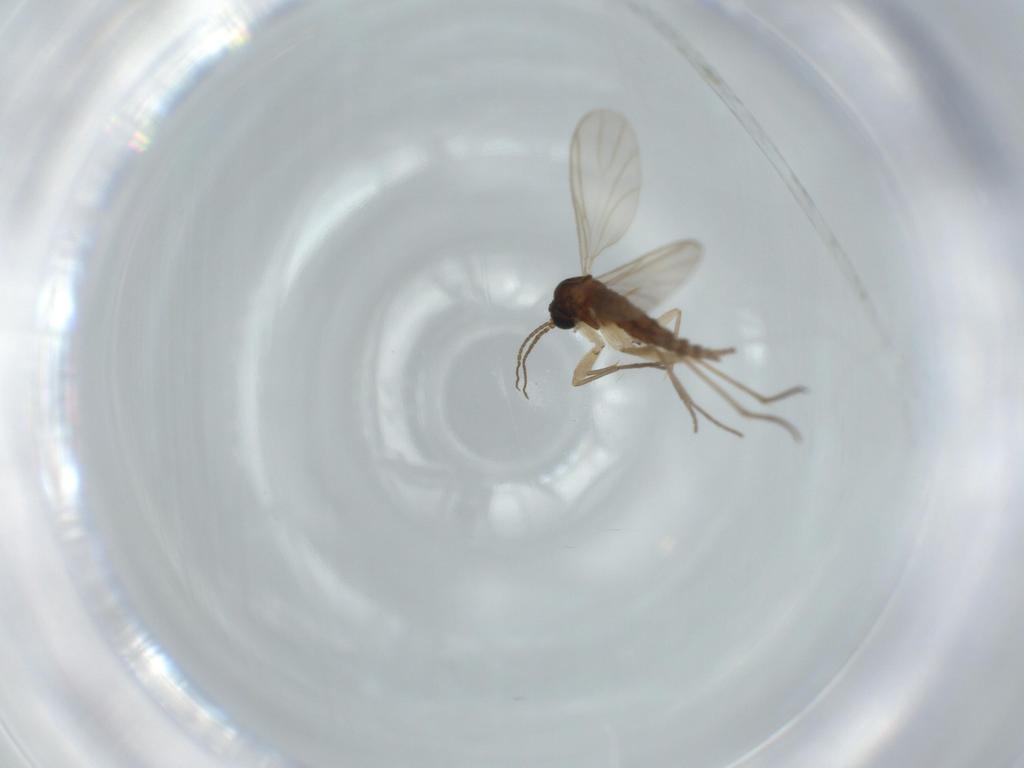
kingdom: Animalia
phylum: Arthropoda
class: Insecta
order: Diptera
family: Sciaridae
